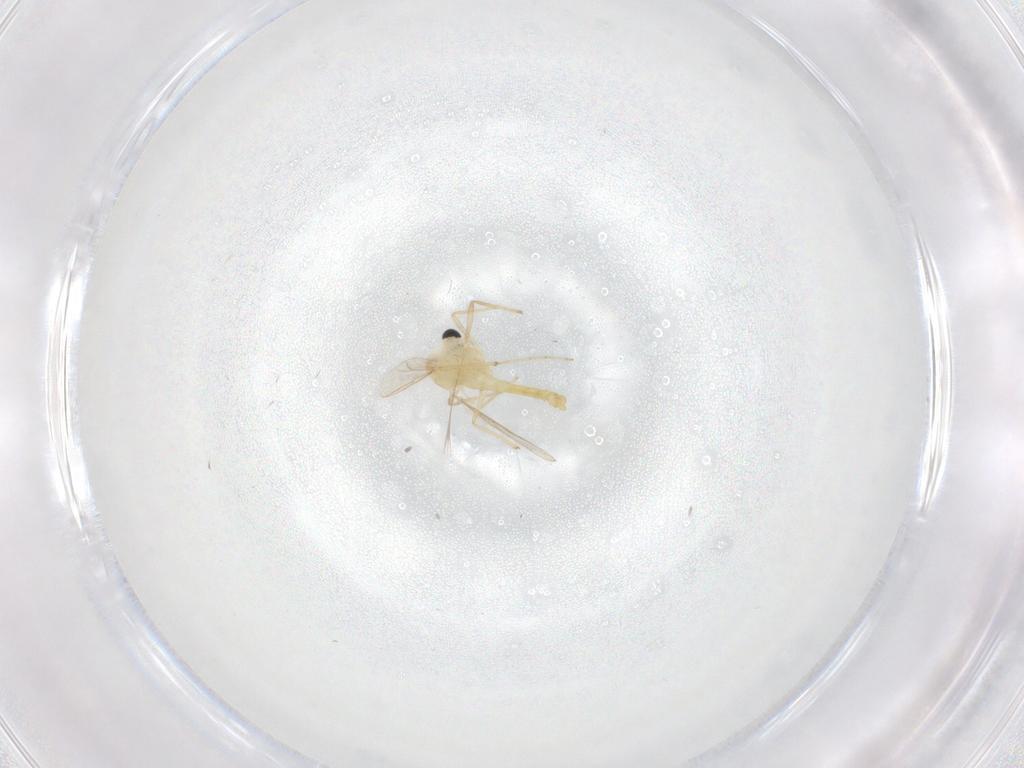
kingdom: Animalia
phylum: Arthropoda
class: Insecta
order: Diptera
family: Chironomidae
